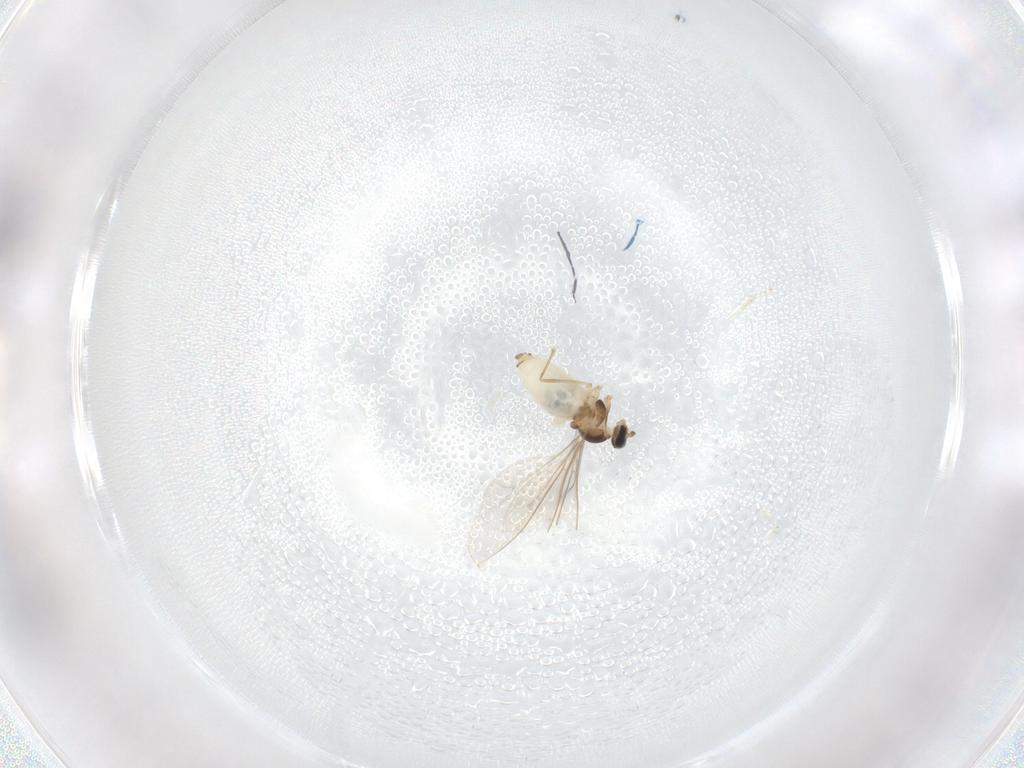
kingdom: Animalia
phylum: Arthropoda
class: Insecta
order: Diptera
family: Cecidomyiidae
